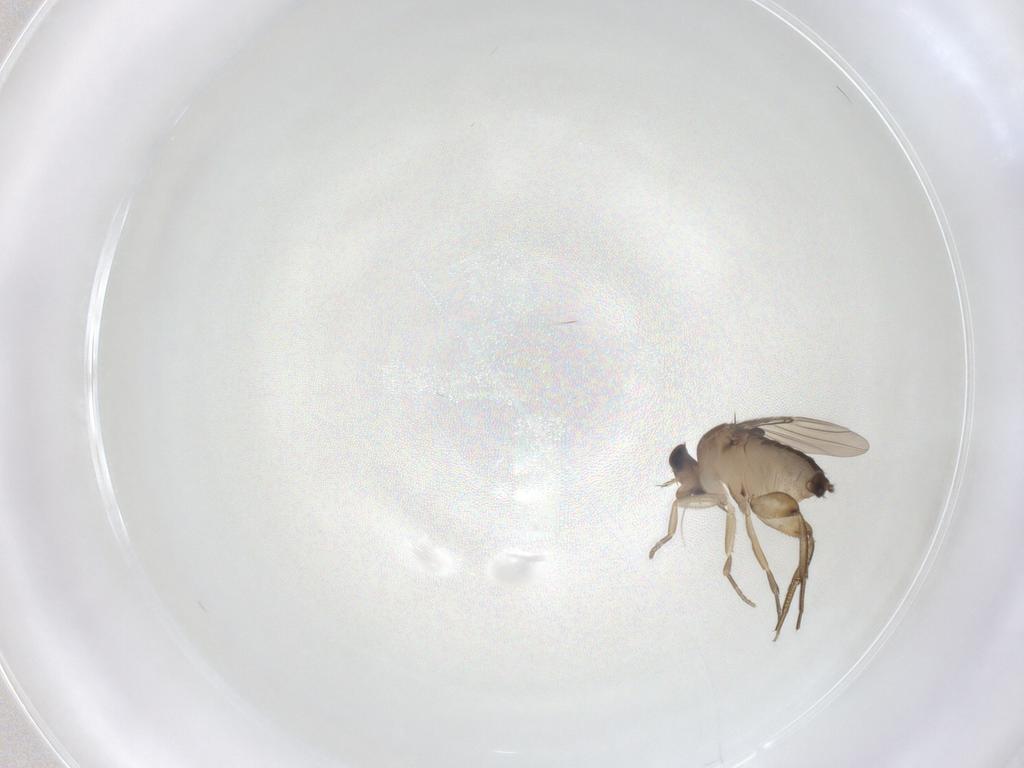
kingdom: Animalia
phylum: Arthropoda
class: Insecta
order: Diptera
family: Phoridae
